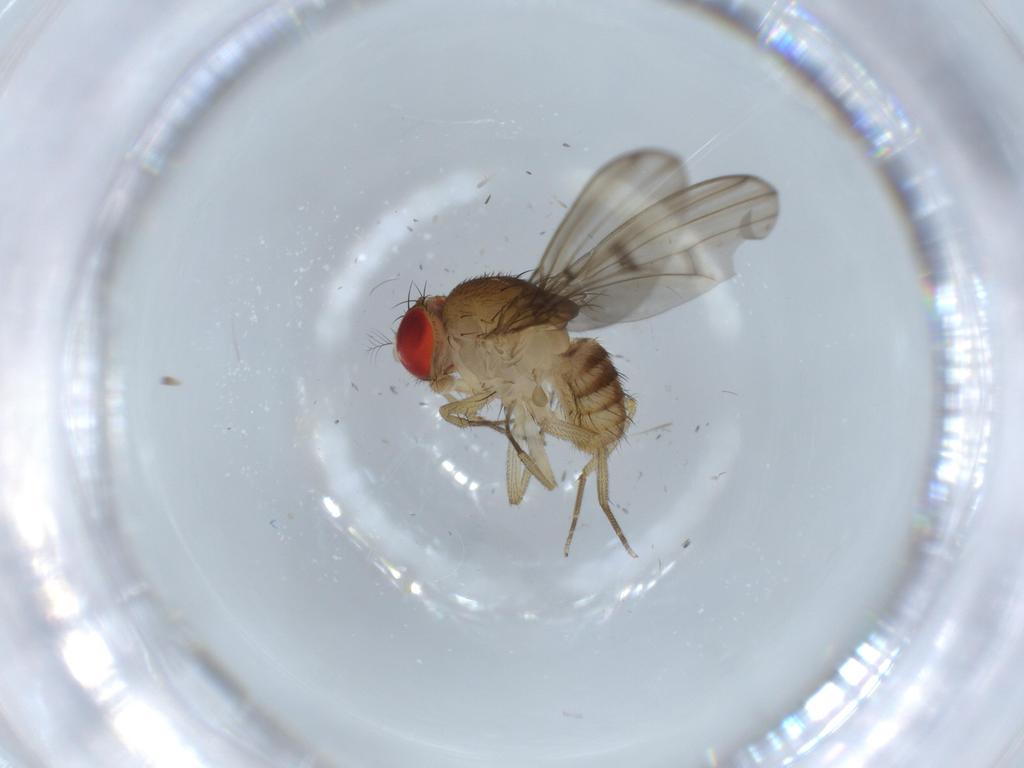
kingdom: Animalia
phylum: Arthropoda
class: Insecta
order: Diptera
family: Drosophilidae
